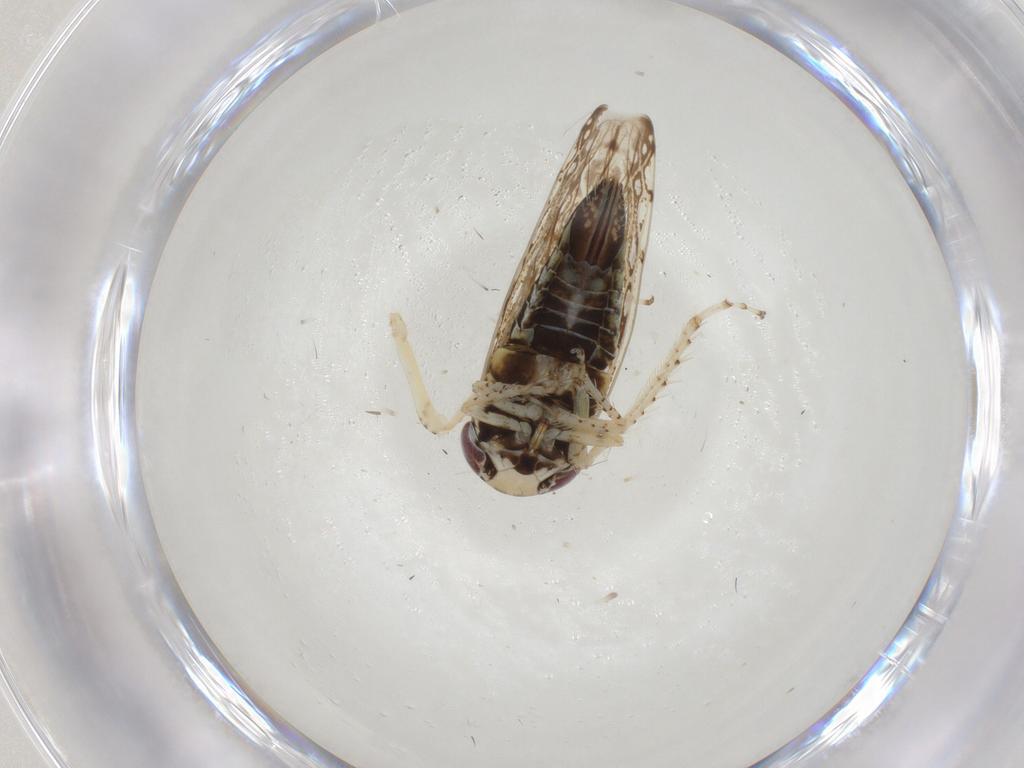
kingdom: Animalia
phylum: Arthropoda
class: Insecta
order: Hemiptera
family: Cicadellidae
